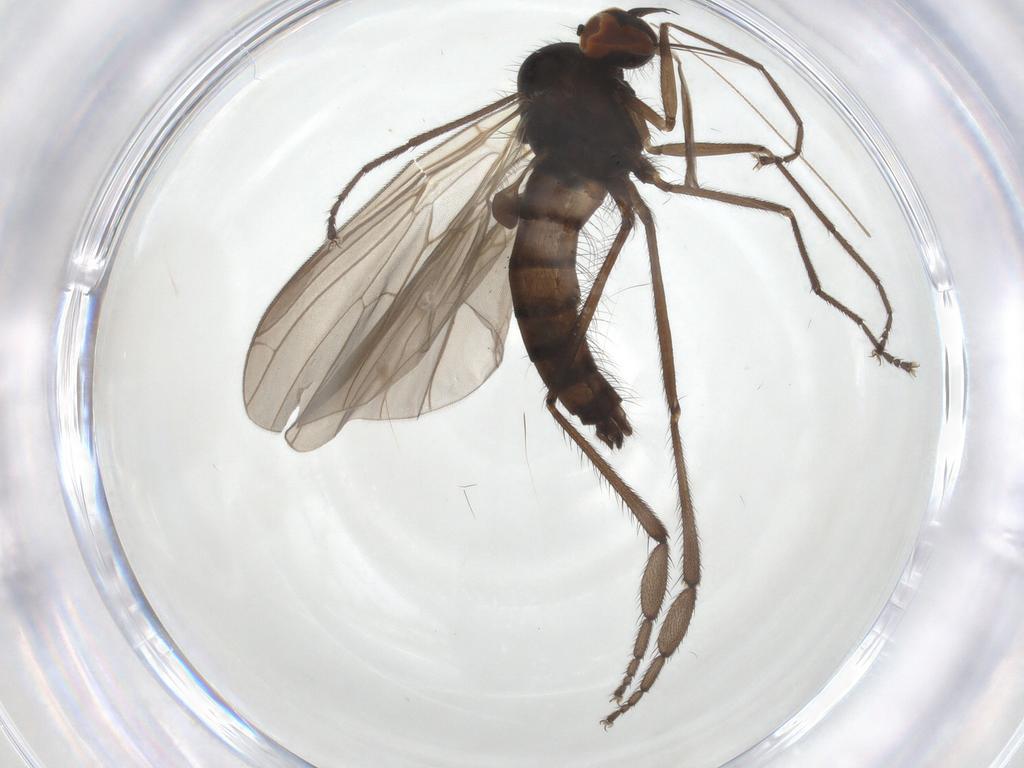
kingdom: Animalia
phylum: Arthropoda
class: Insecta
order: Diptera
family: Empididae
